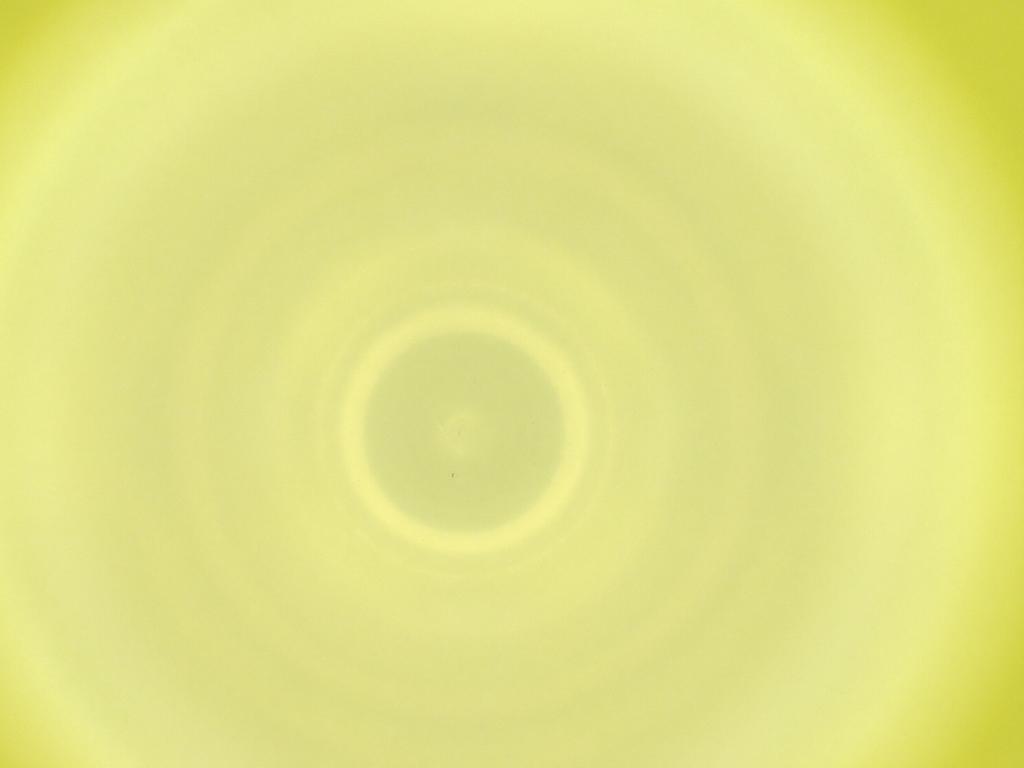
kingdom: Animalia
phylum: Arthropoda
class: Insecta
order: Diptera
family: Cecidomyiidae
